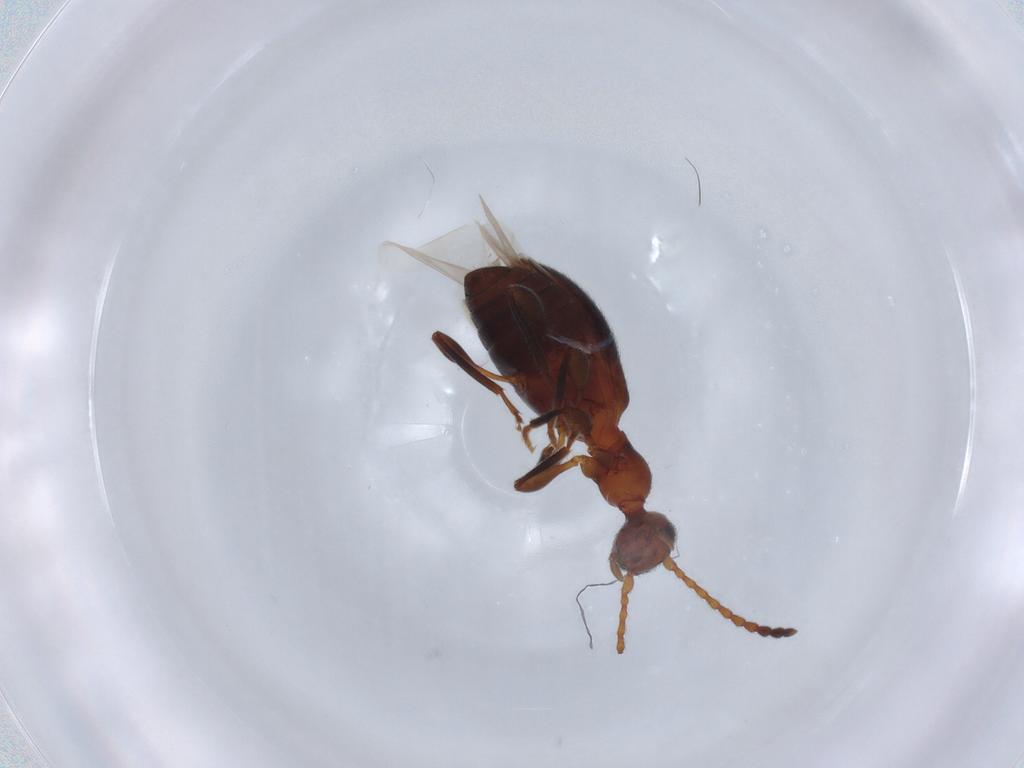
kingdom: Animalia
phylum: Arthropoda
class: Insecta
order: Coleoptera
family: Anthicidae
